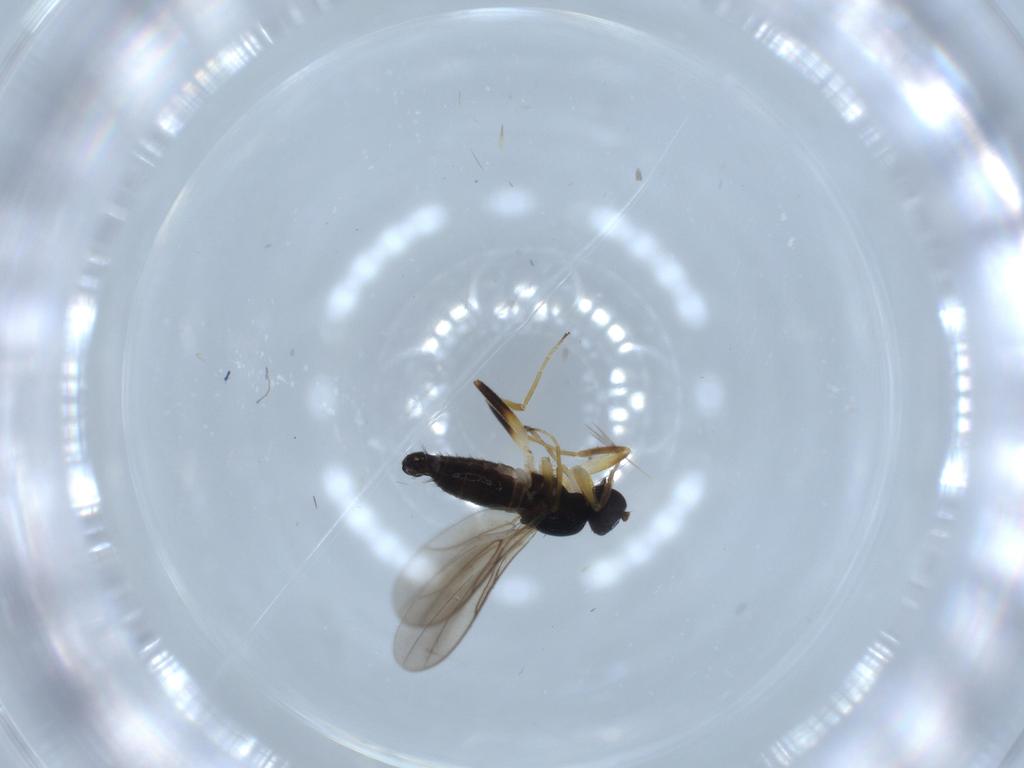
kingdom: Animalia
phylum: Arthropoda
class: Insecta
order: Diptera
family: Hybotidae
